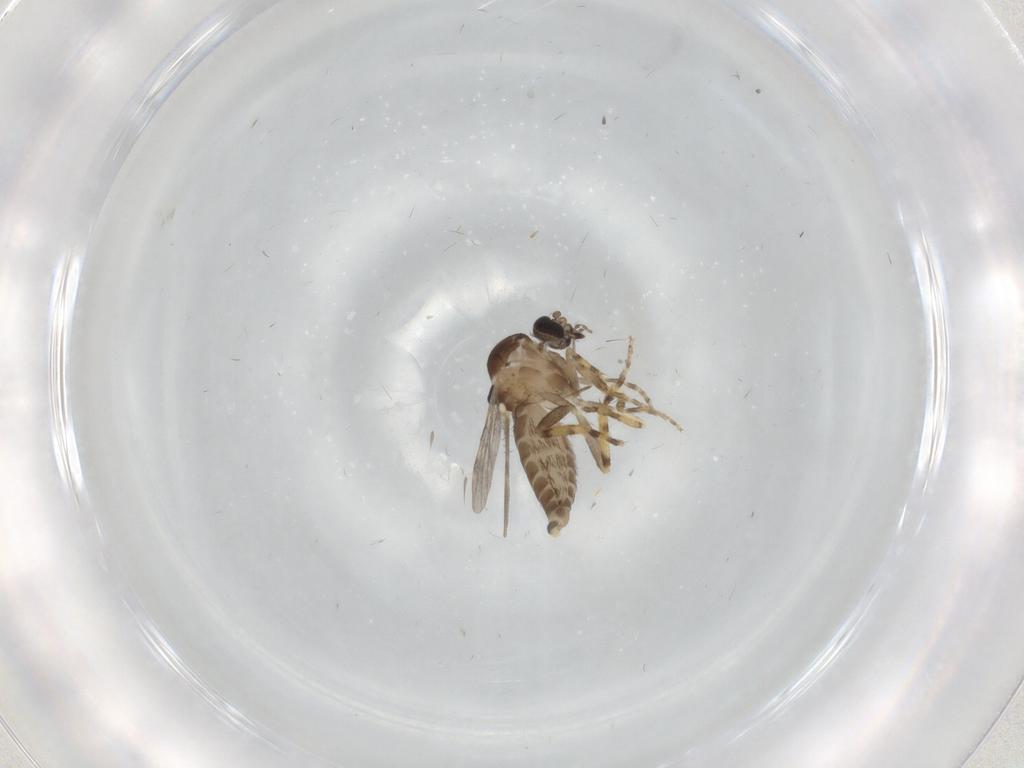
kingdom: Animalia
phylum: Arthropoda
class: Insecta
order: Diptera
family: Ceratopogonidae
